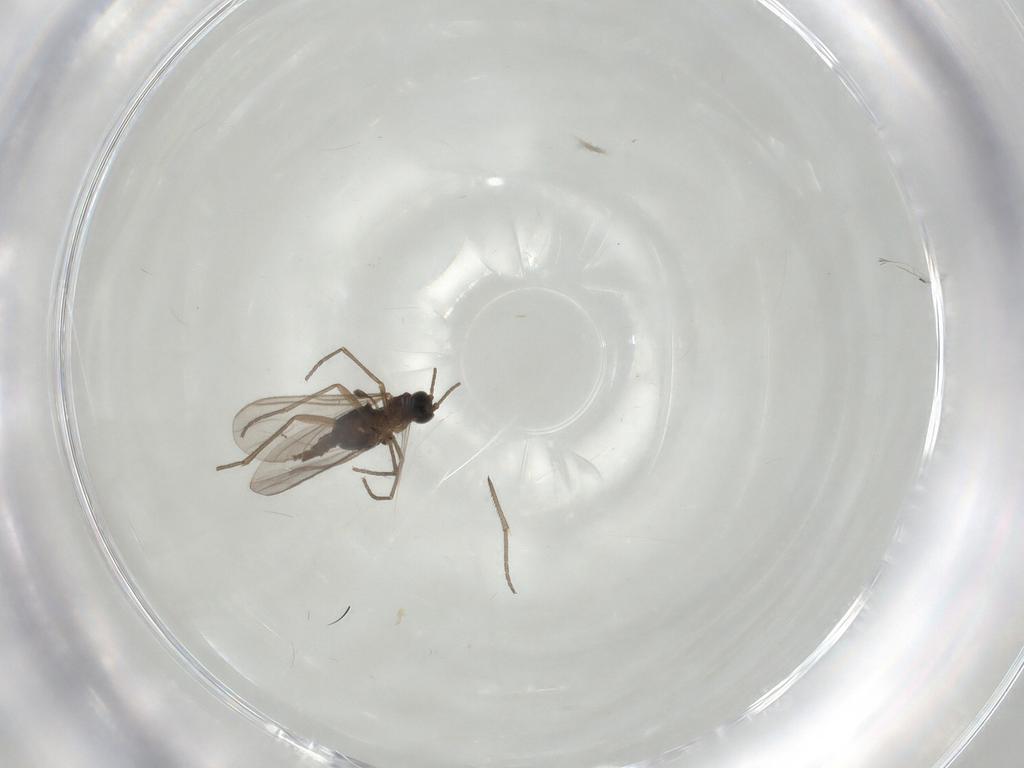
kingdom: Animalia
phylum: Arthropoda
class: Insecta
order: Diptera
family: Sciaridae
